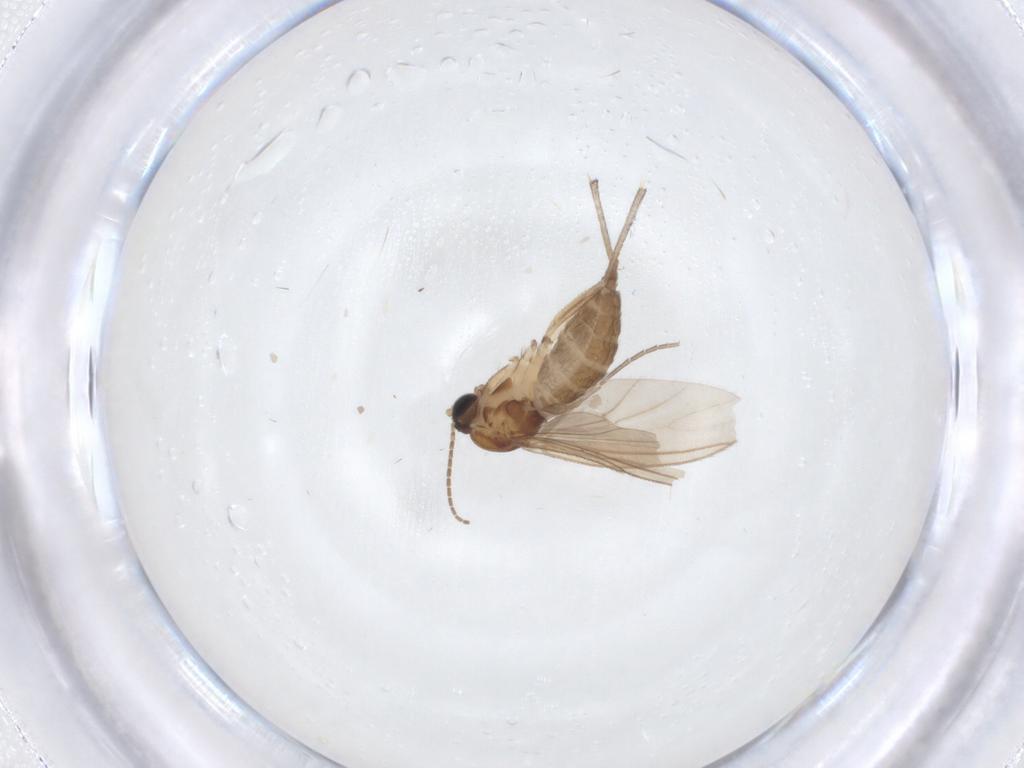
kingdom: Animalia
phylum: Arthropoda
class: Insecta
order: Diptera
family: Sciaridae
